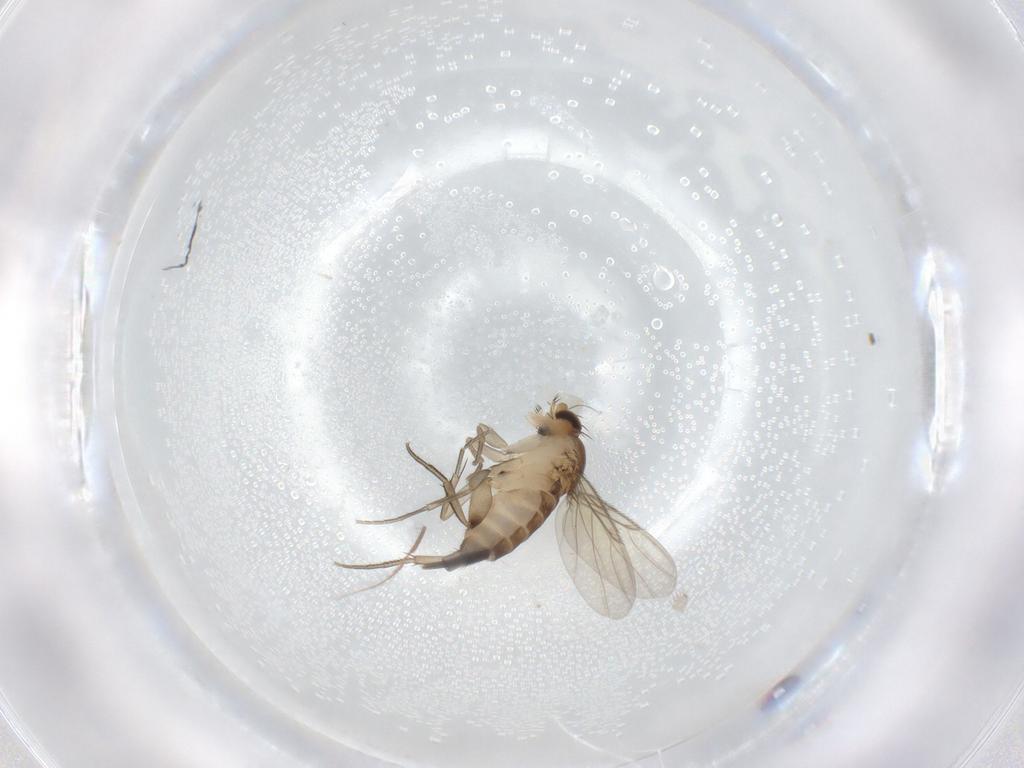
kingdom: Animalia
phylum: Arthropoda
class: Insecta
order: Diptera
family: Phoridae
